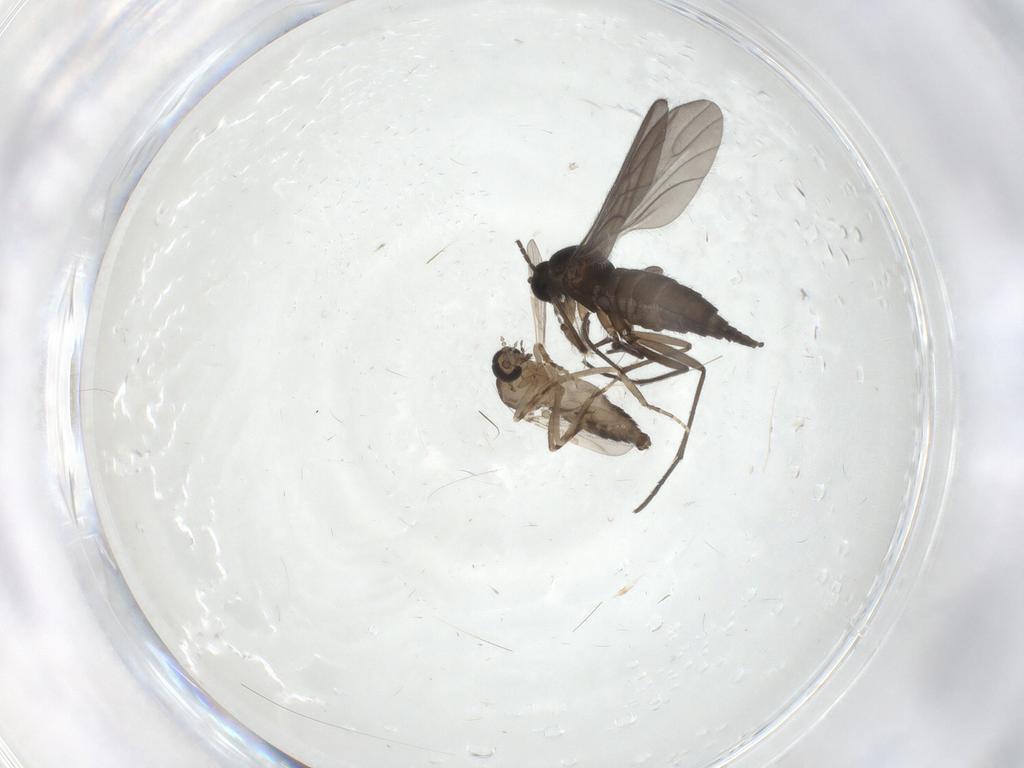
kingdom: Animalia
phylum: Arthropoda
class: Insecta
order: Diptera
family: Ceratopogonidae
